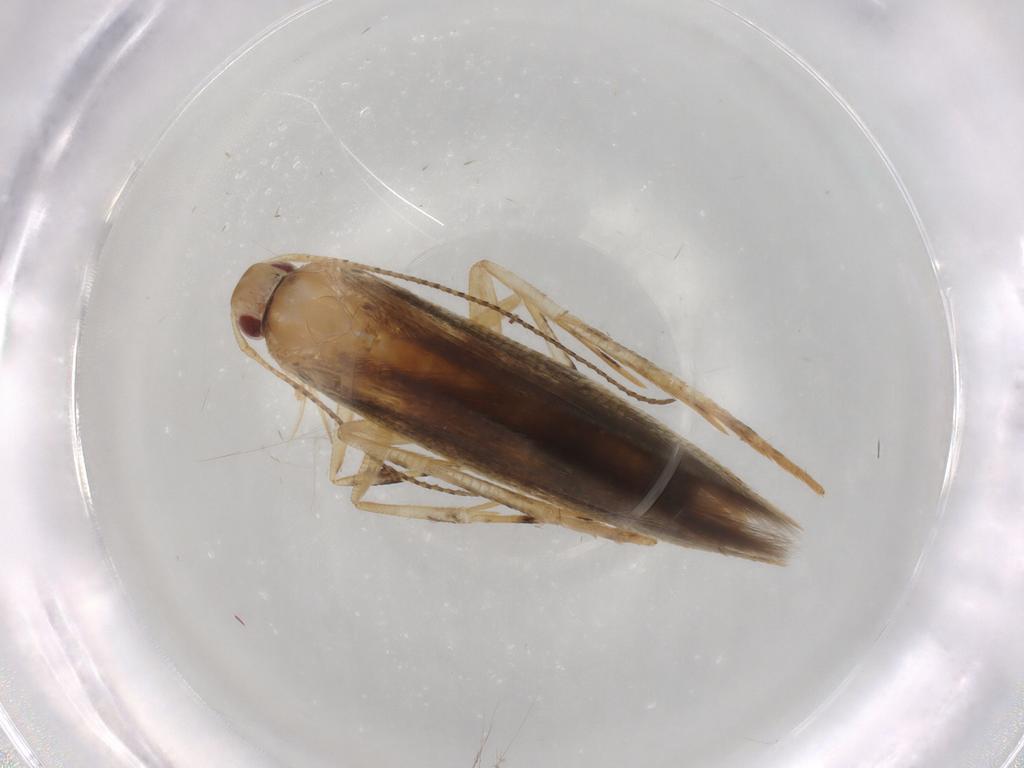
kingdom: Animalia
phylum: Arthropoda
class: Insecta
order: Lepidoptera
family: Cosmopterigidae
